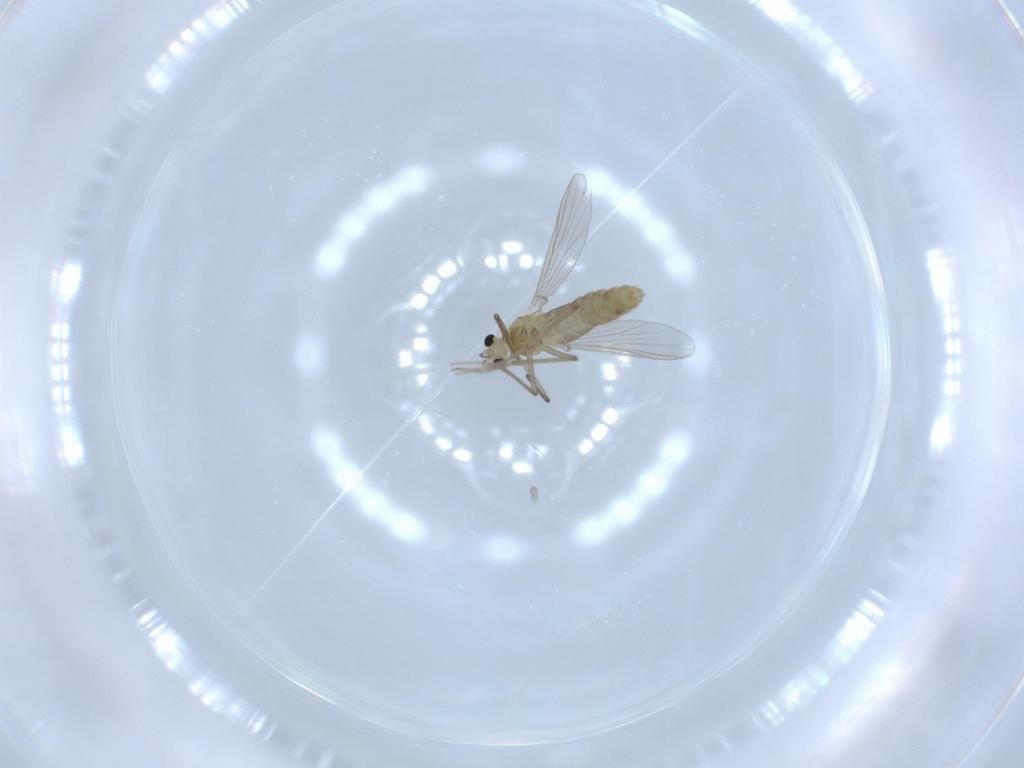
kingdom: Animalia
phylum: Arthropoda
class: Insecta
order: Diptera
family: Chironomidae
